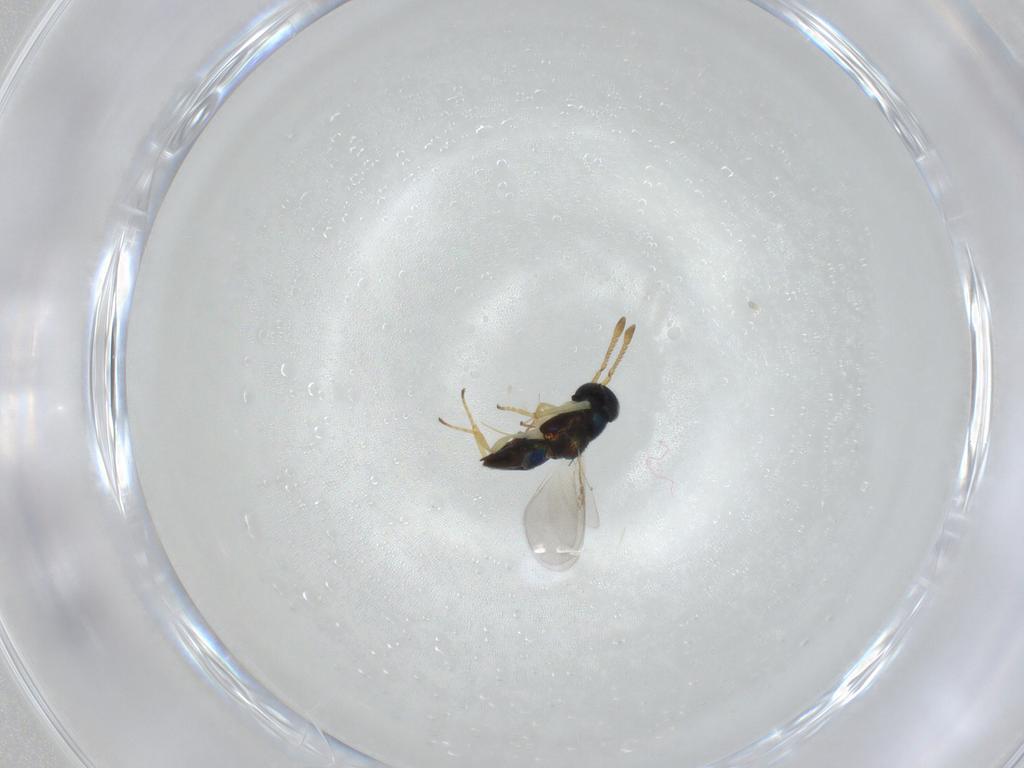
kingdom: Animalia
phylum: Arthropoda
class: Insecta
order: Hymenoptera
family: Encyrtidae
